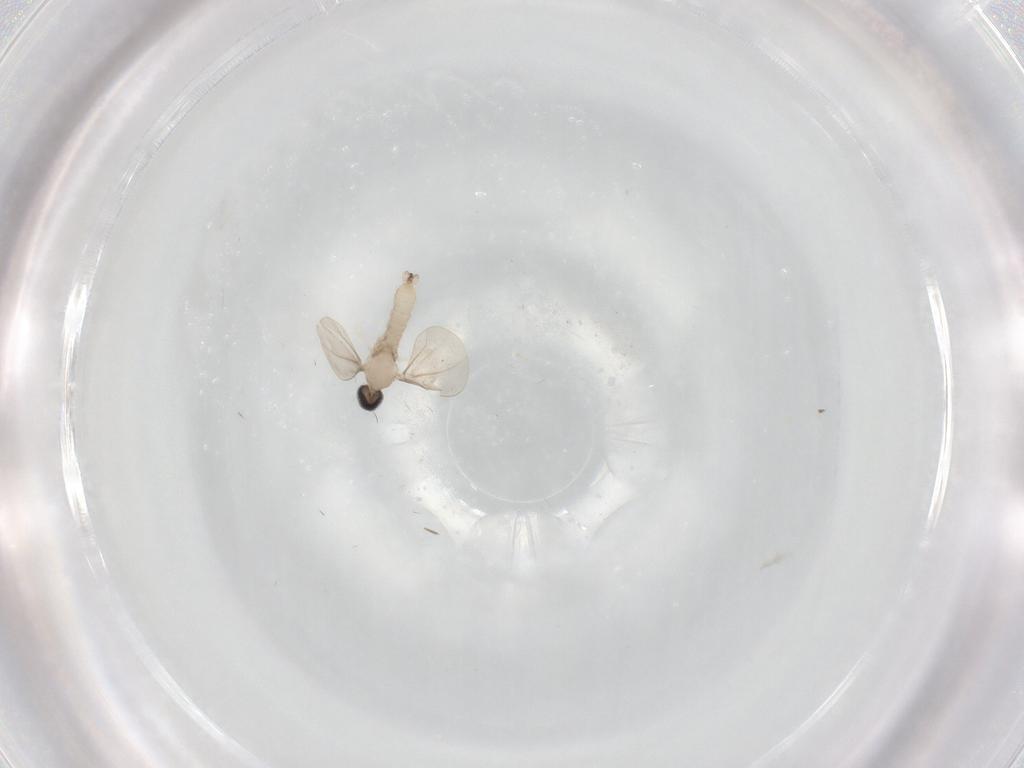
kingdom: Animalia
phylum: Arthropoda
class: Insecta
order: Diptera
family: Cecidomyiidae
